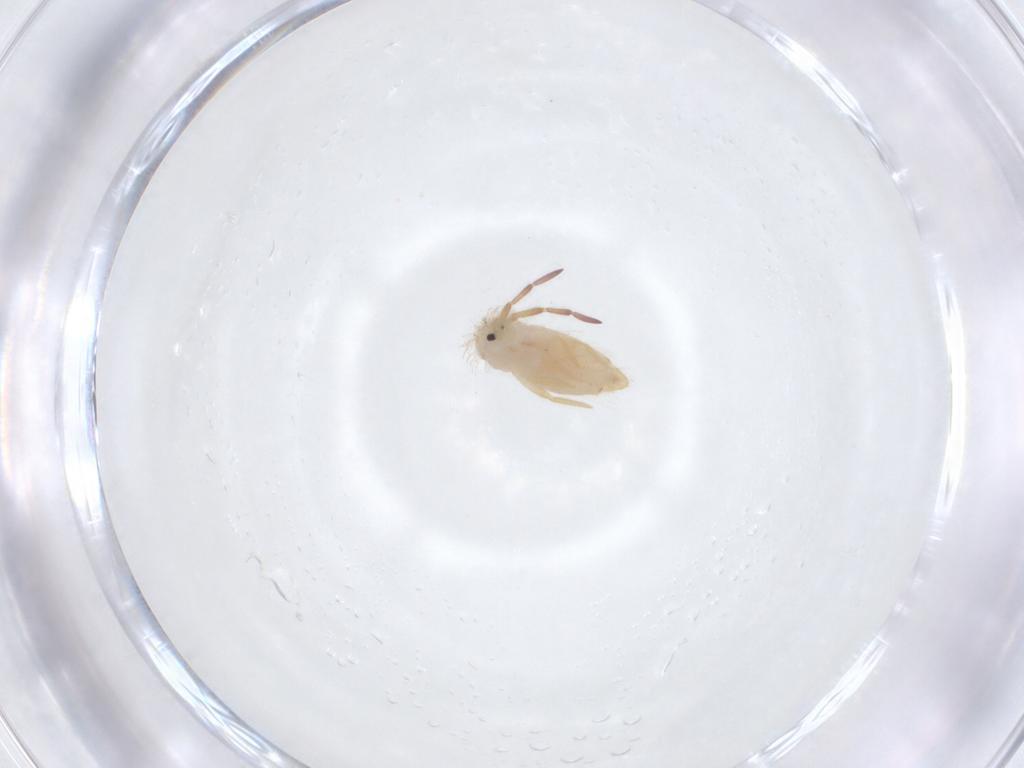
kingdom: Animalia
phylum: Arthropoda
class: Collembola
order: Entomobryomorpha
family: Entomobryidae
